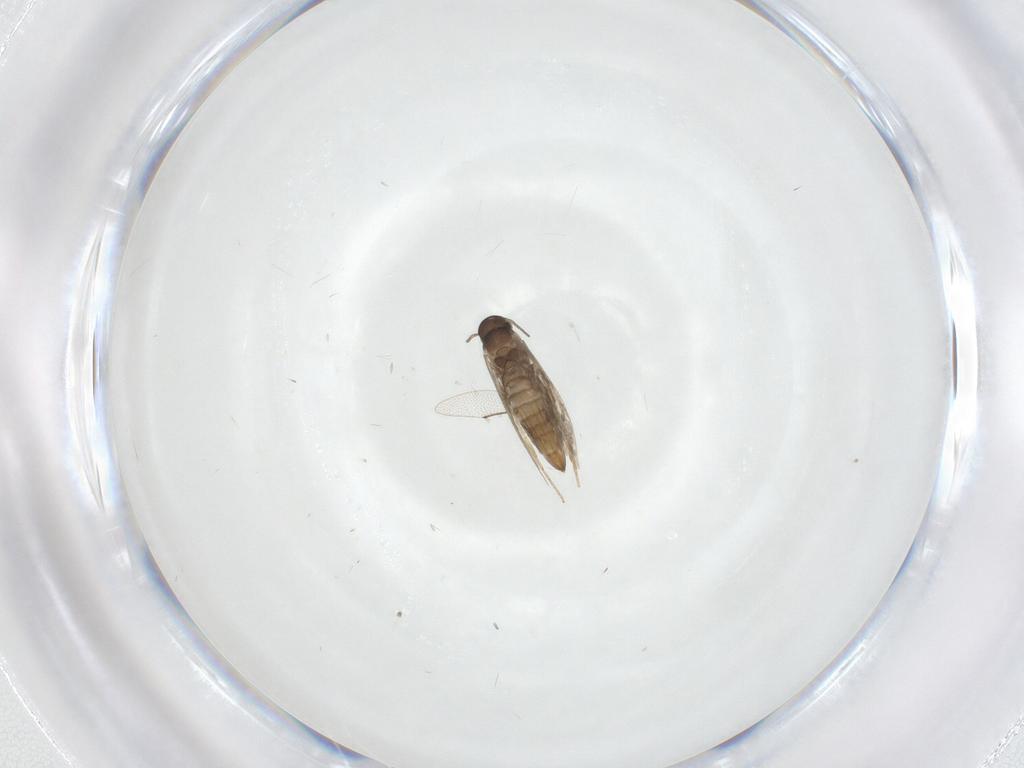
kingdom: Animalia
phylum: Arthropoda
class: Insecta
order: Lepidoptera
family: Heliozelidae
